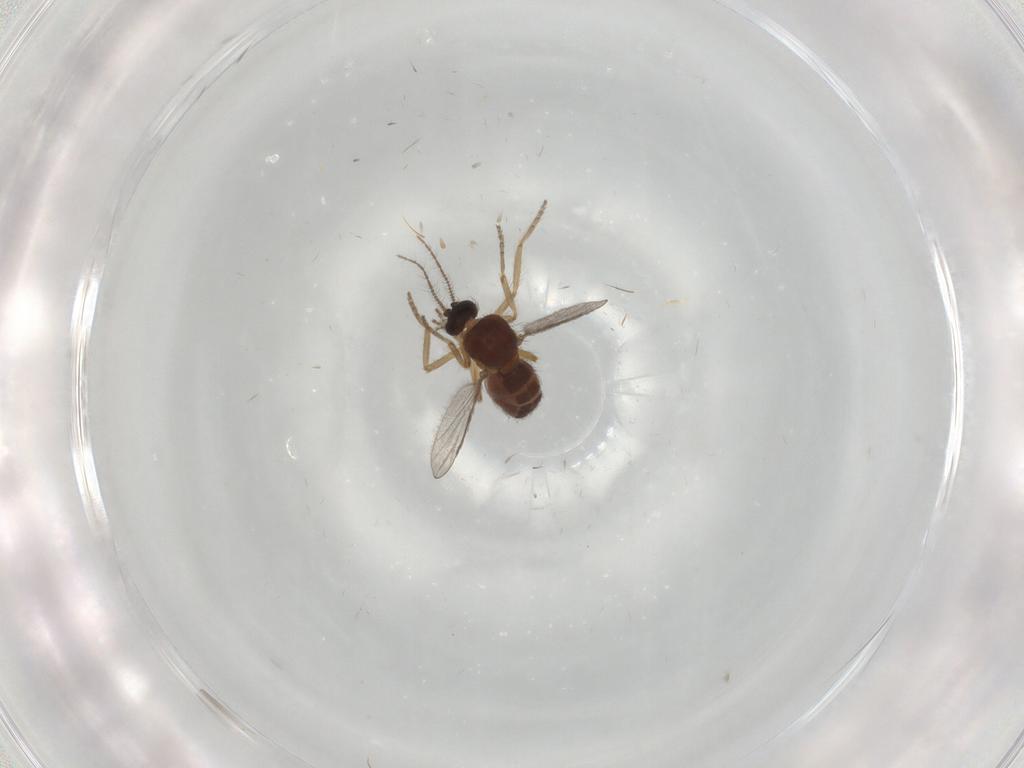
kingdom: Animalia
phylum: Arthropoda
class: Insecta
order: Diptera
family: Ceratopogonidae
